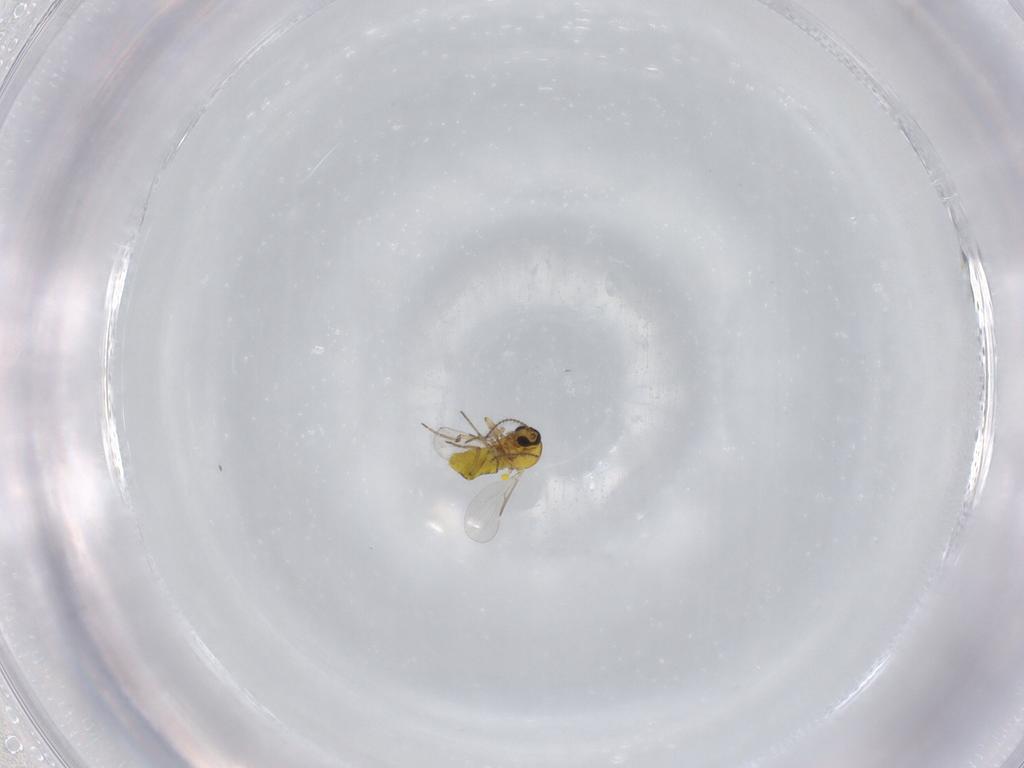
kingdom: Animalia
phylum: Arthropoda
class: Insecta
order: Diptera
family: Ceratopogonidae
